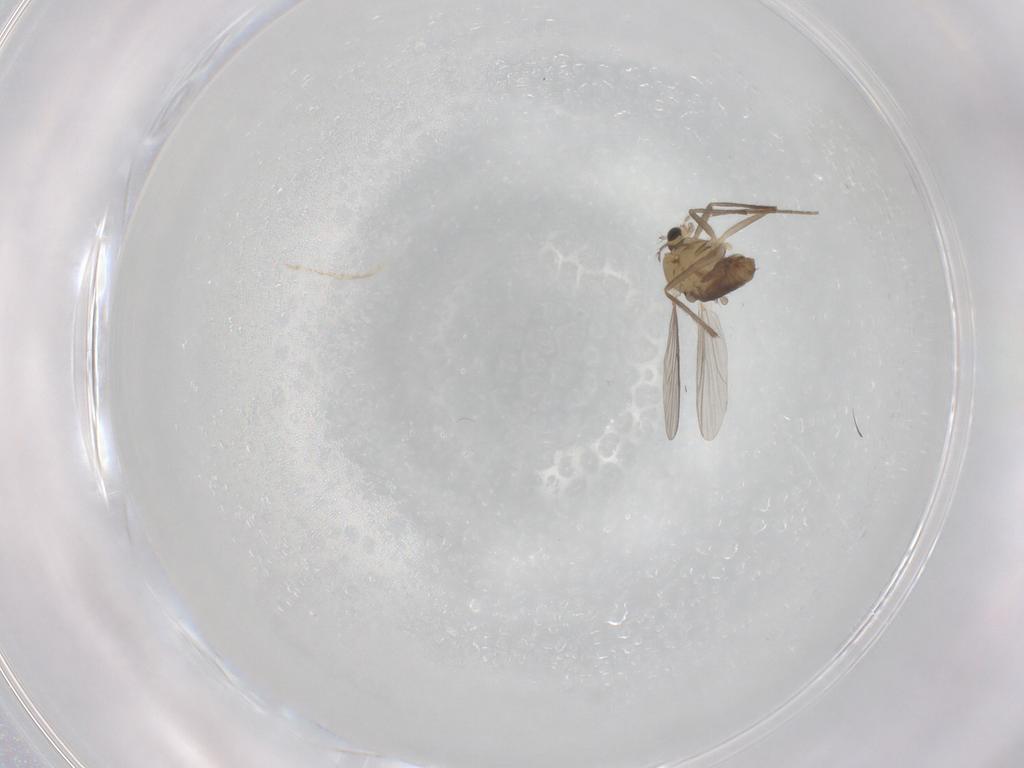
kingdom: Animalia
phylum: Arthropoda
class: Insecta
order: Diptera
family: Chironomidae
